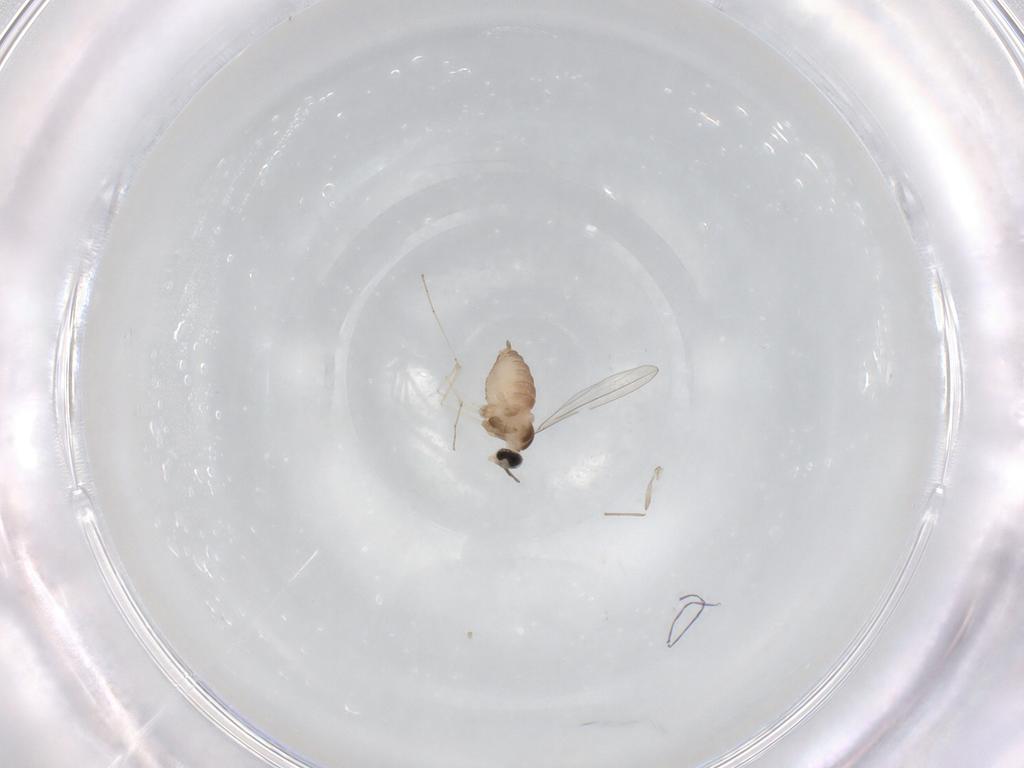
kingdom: Animalia
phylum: Arthropoda
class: Insecta
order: Diptera
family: Cecidomyiidae
